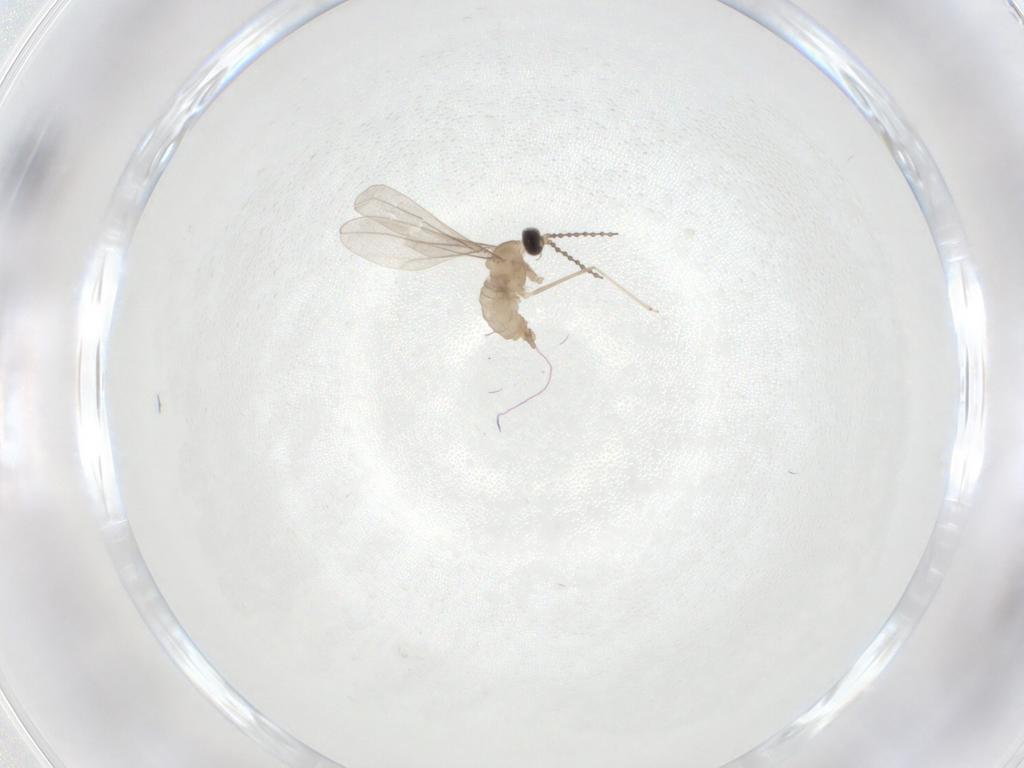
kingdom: Animalia
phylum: Arthropoda
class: Insecta
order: Diptera
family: Cecidomyiidae
